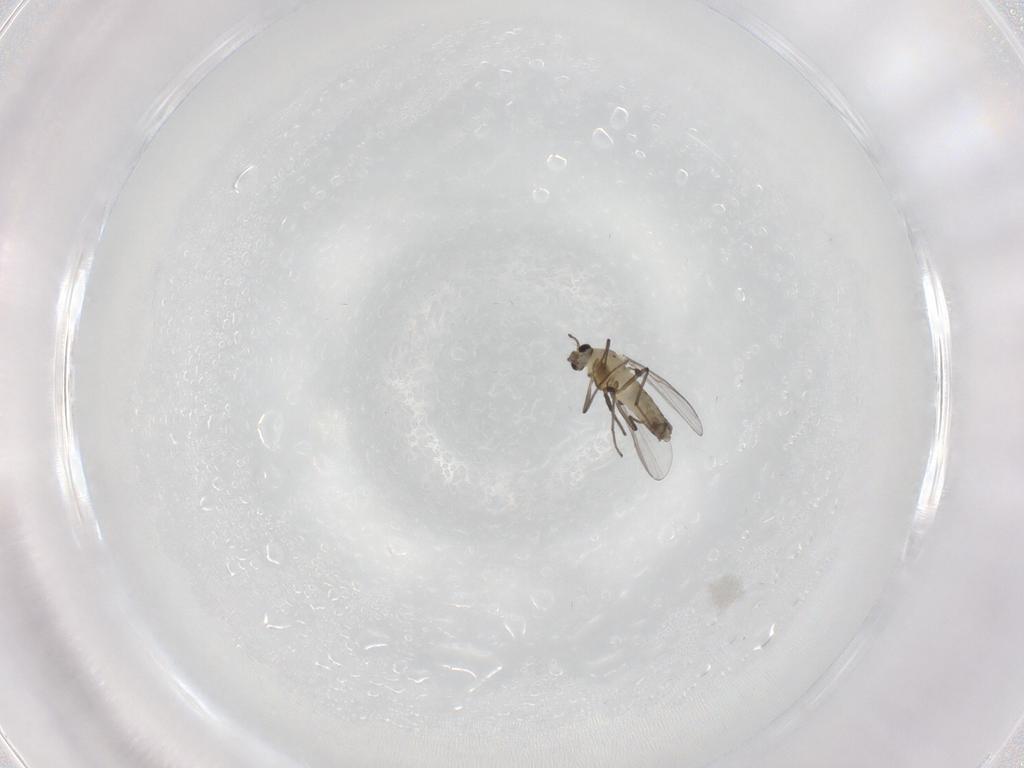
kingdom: Animalia
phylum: Arthropoda
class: Insecta
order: Diptera
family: Sciaridae
